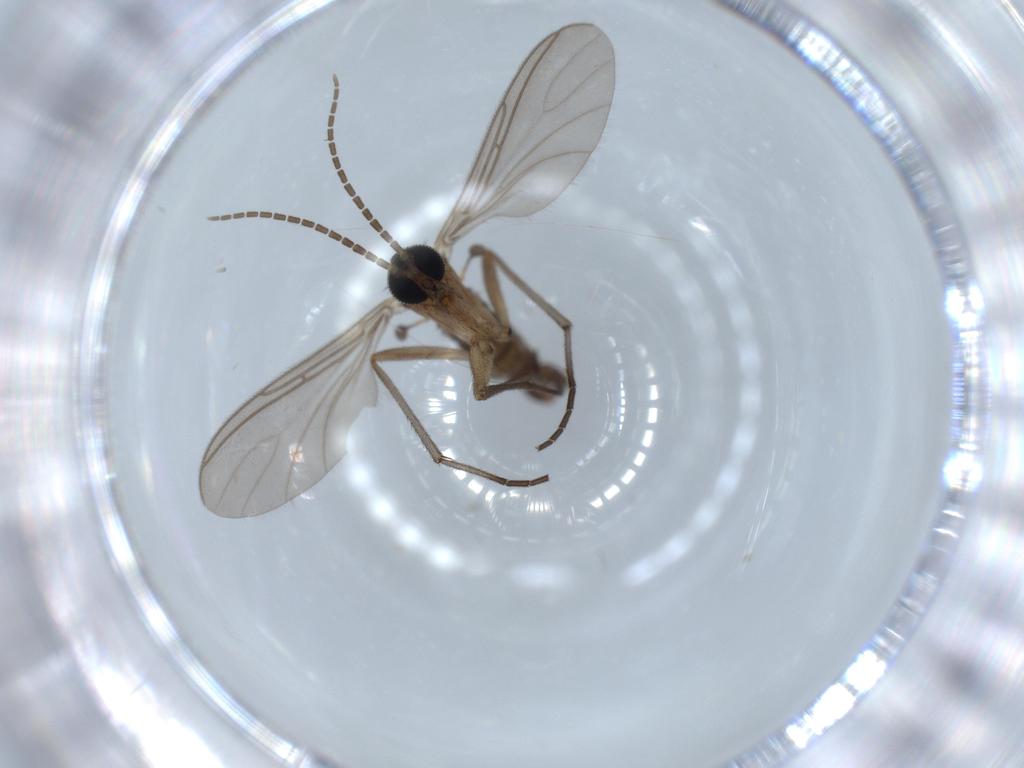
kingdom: Animalia
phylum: Arthropoda
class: Insecta
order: Diptera
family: Sciaridae
